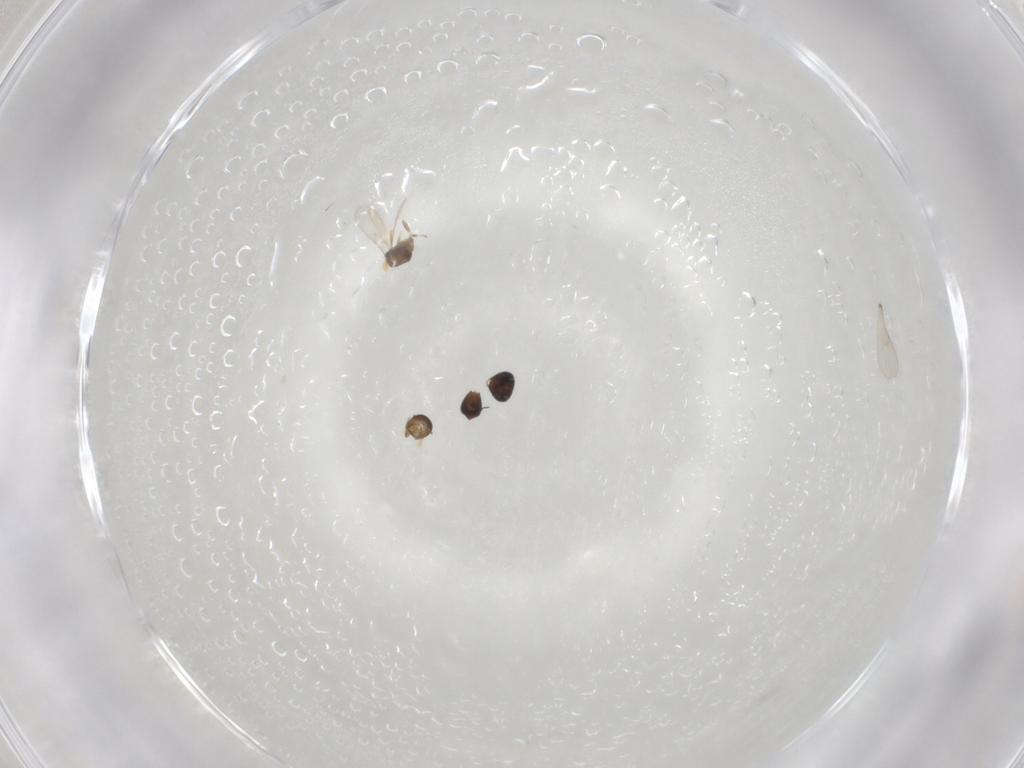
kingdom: Animalia
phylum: Arthropoda
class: Insecta
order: Hymenoptera
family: Scelionidae
